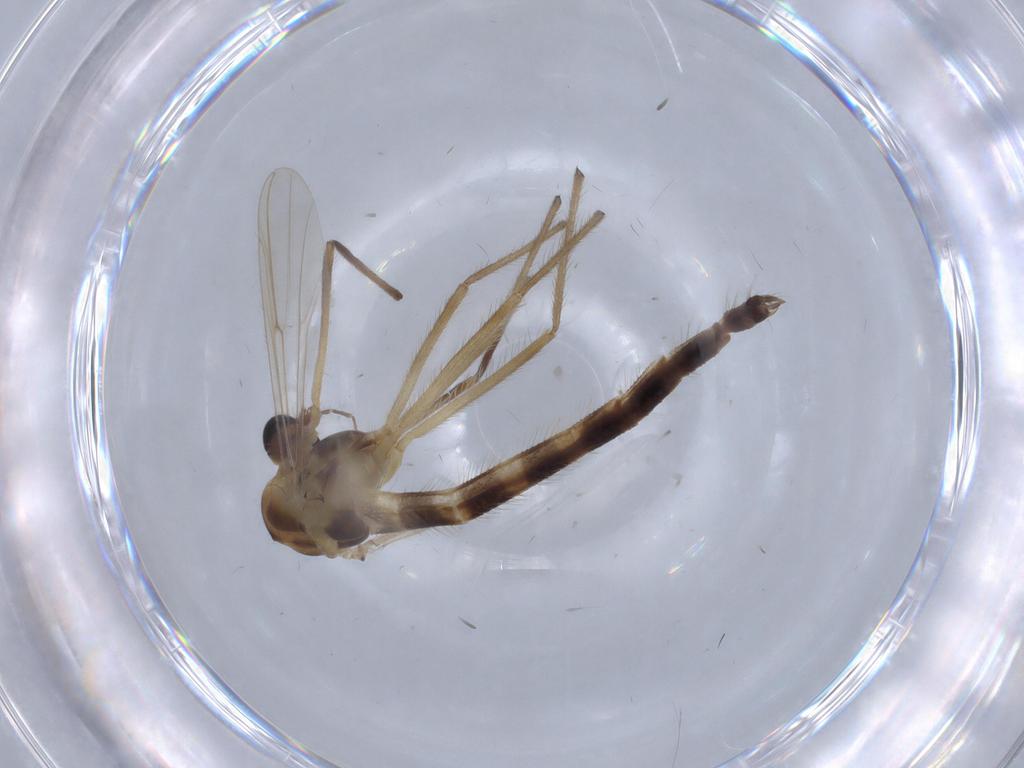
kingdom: Animalia
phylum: Arthropoda
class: Insecta
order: Diptera
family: Chironomidae
